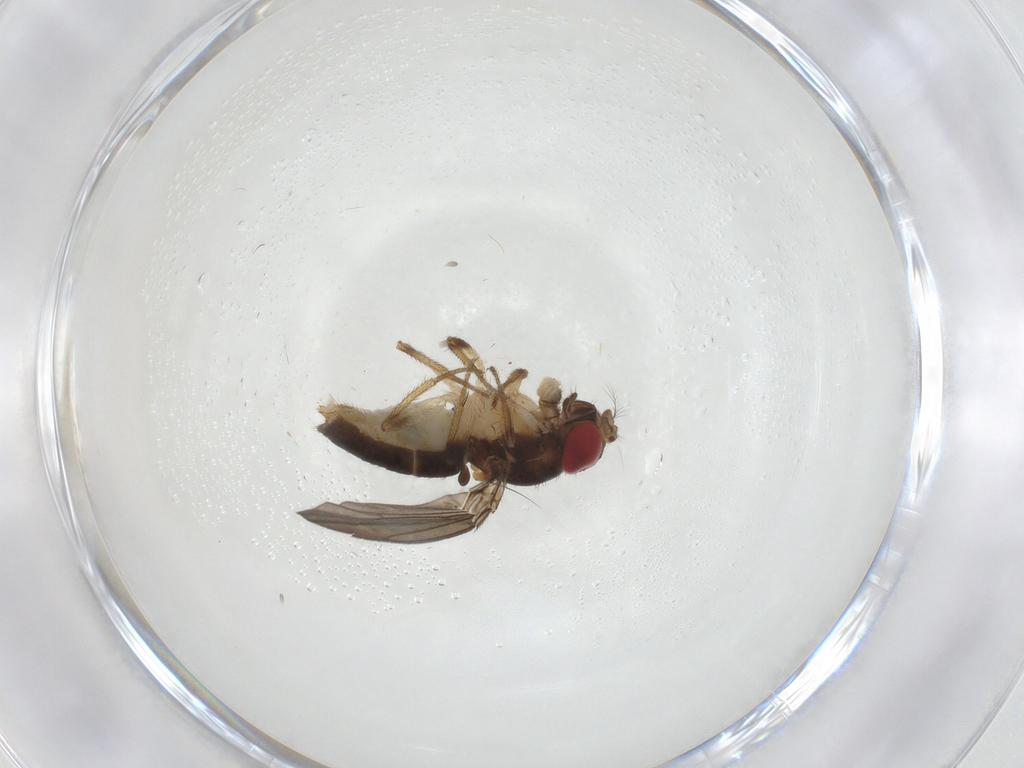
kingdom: Animalia
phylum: Arthropoda
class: Insecta
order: Diptera
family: Drosophilidae
